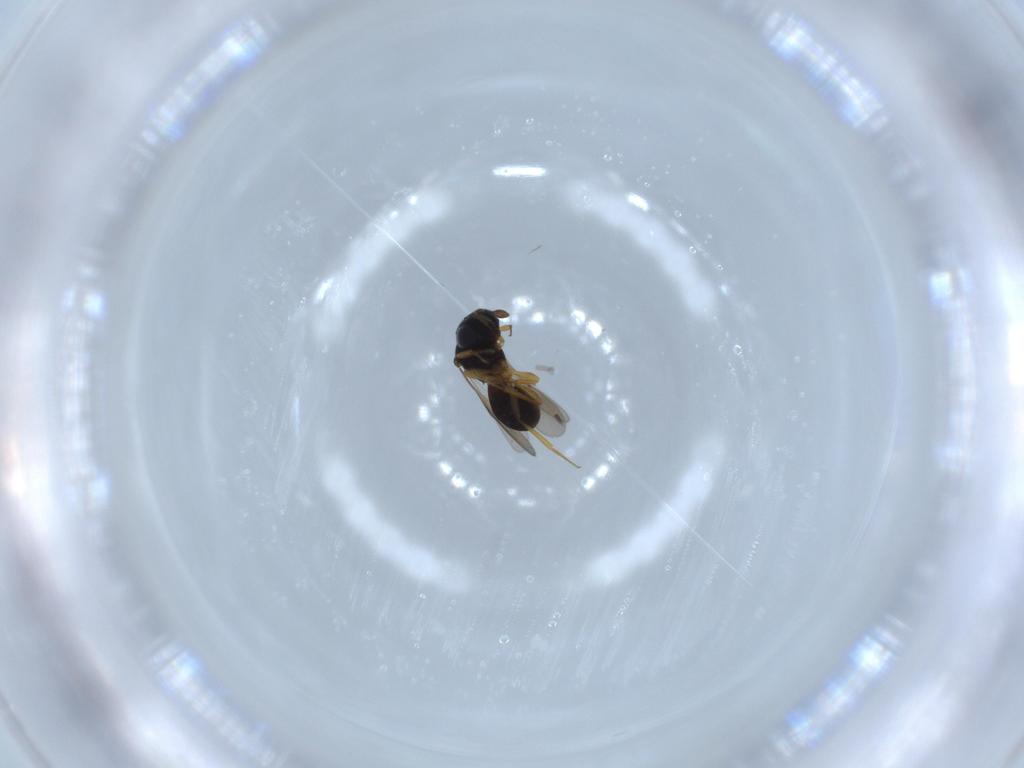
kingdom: Animalia
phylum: Arthropoda
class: Insecta
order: Hymenoptera
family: Scelionidae
